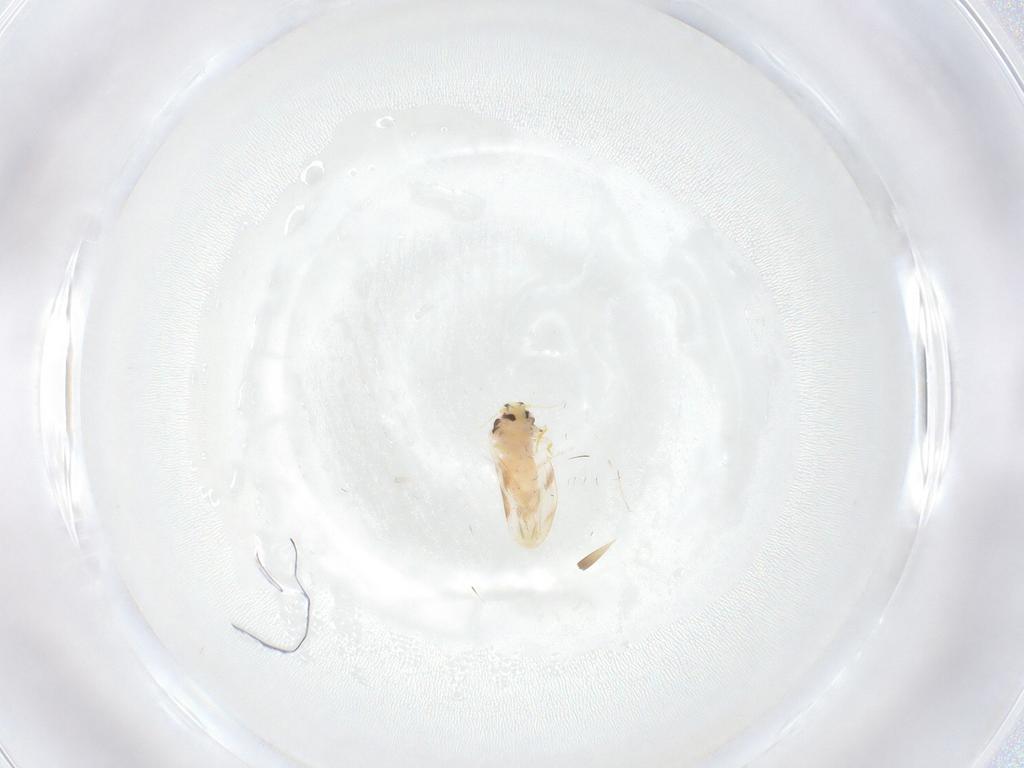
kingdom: Animalia
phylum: Arthropoda
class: Insecta
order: Hemiptera
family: Aleyrodidae
